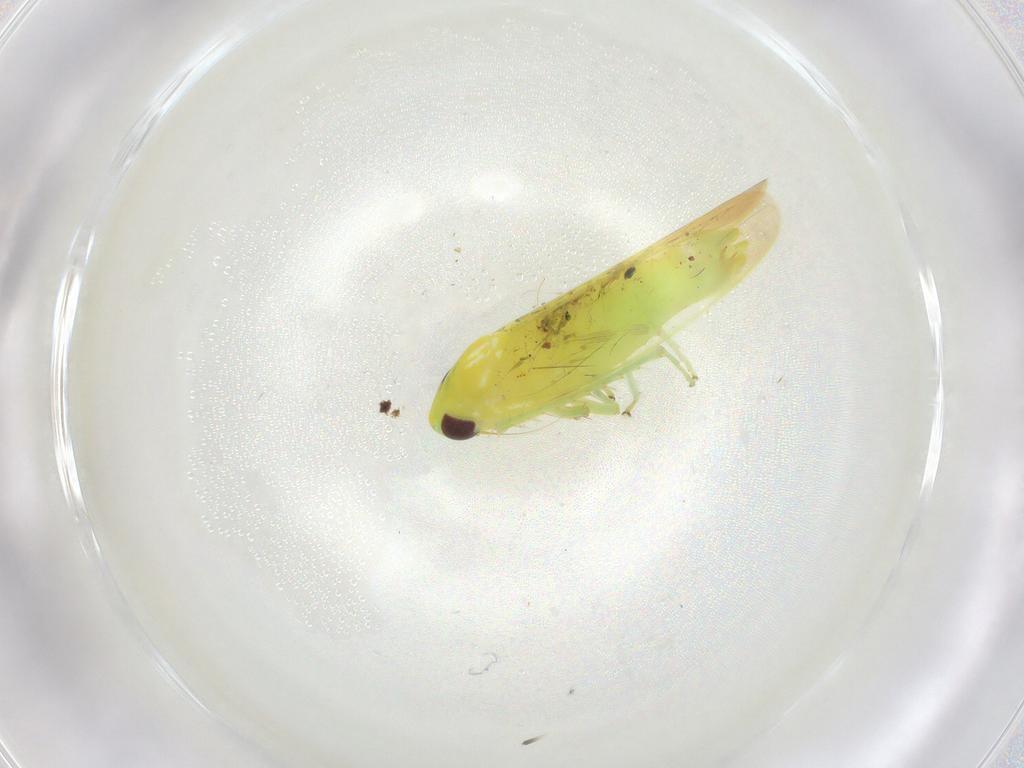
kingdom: Animalia
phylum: Arthropoda
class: Insecta
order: Hemiptera
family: Cicadellidae
